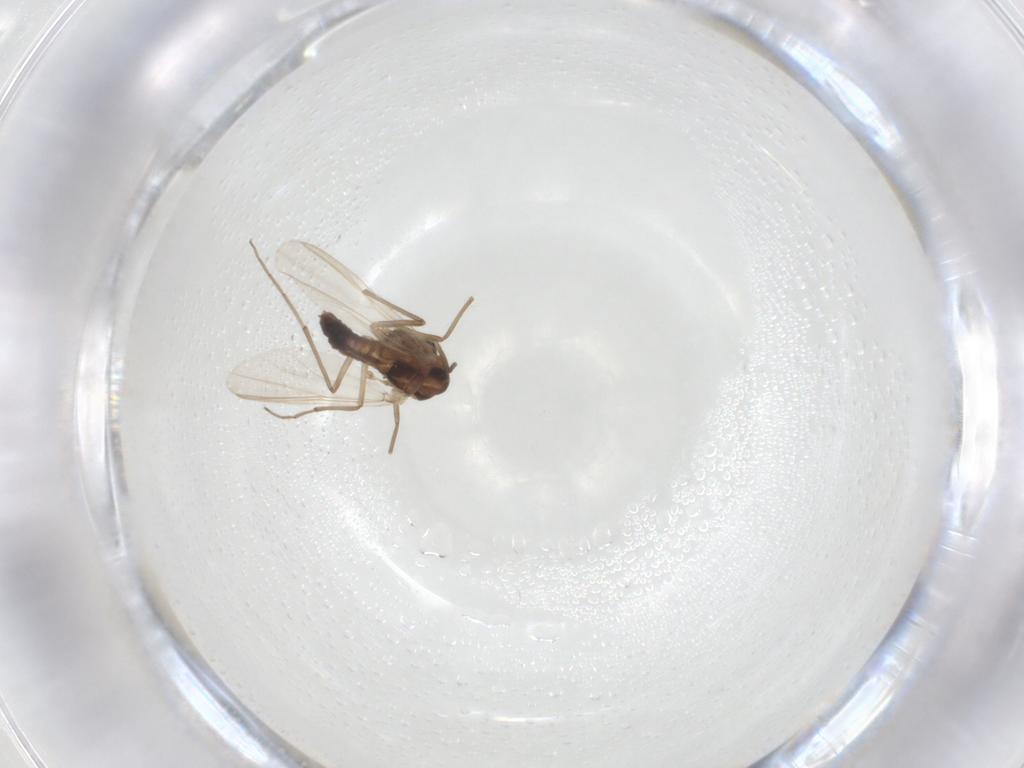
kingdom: Animalia
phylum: Arthropoda
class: Insecta
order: Diptera
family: Chironomidae
